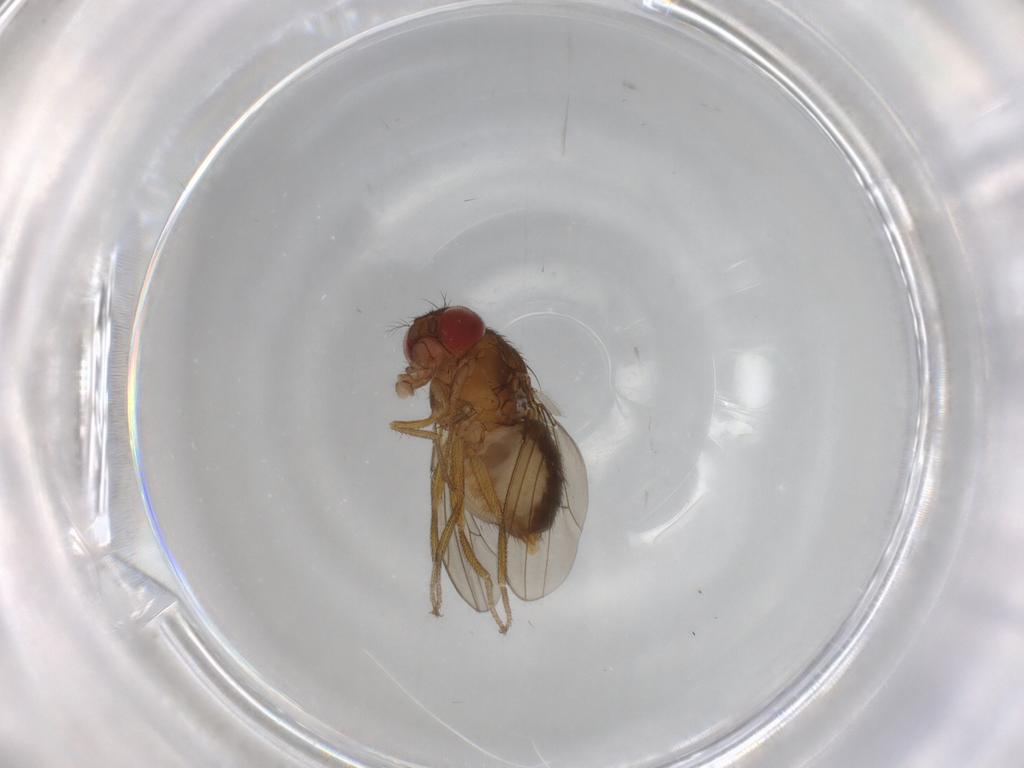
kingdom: Animalia
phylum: Arthropoda
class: Insecta
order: Diptera
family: Drosophilidae
